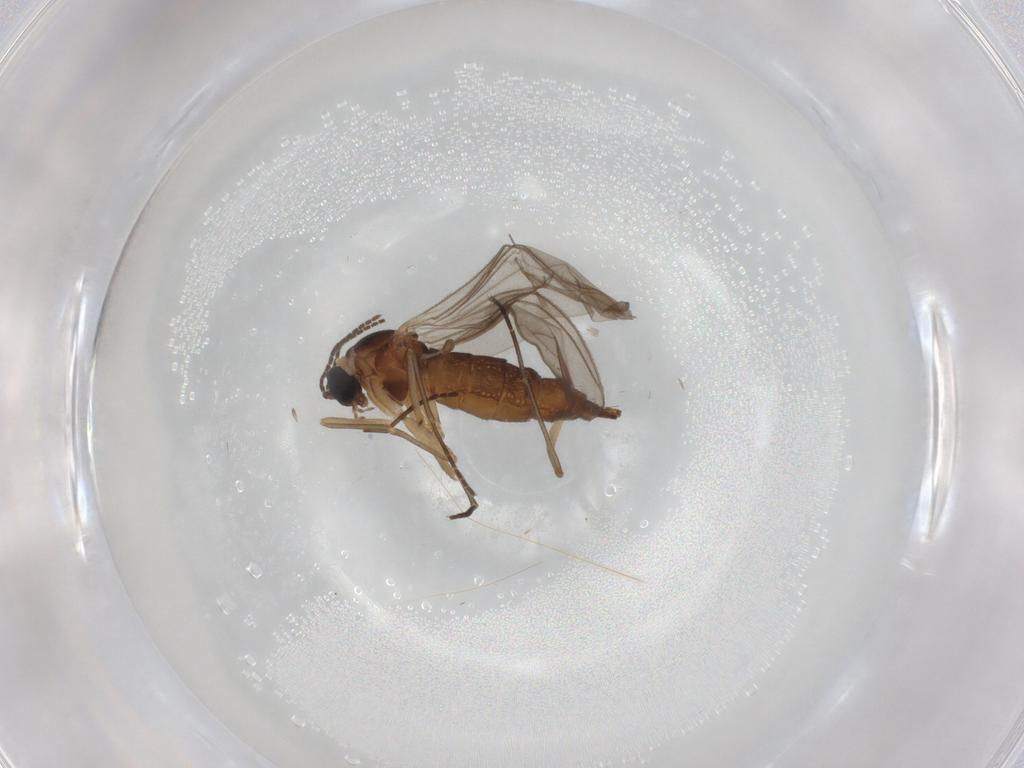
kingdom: Animalia
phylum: Arthropoda
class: Insecta
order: Diptera
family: Sciaridae
